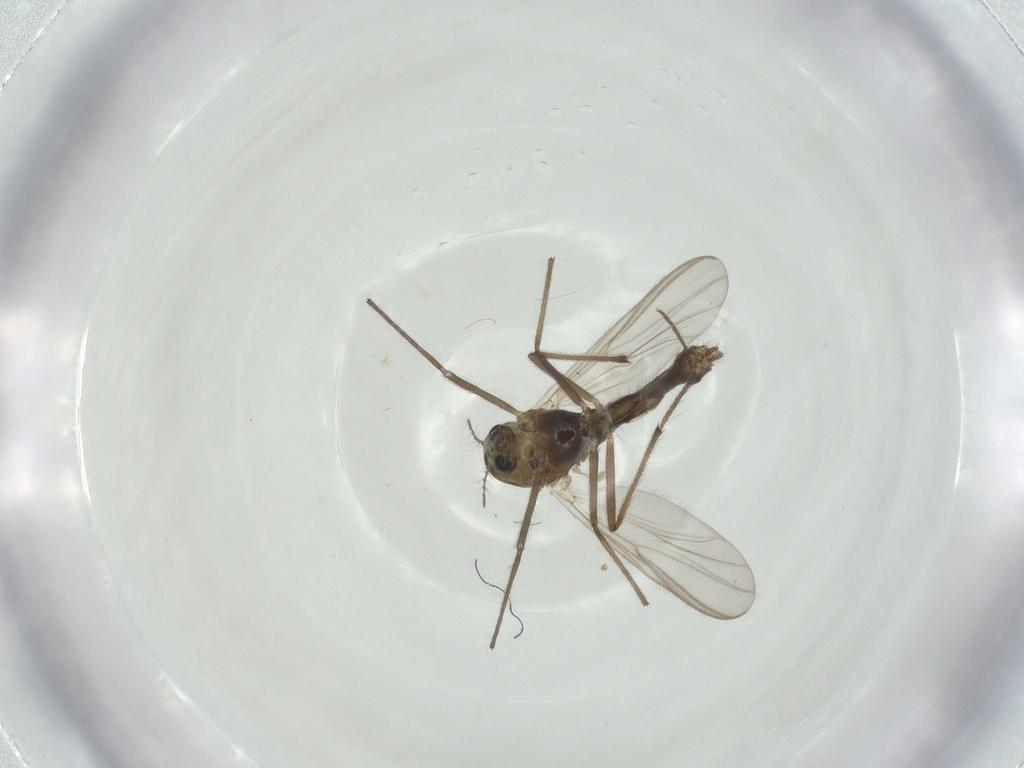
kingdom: Animalia
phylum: Arthropoda
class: Insecta
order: Diptera
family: Chironomidae
